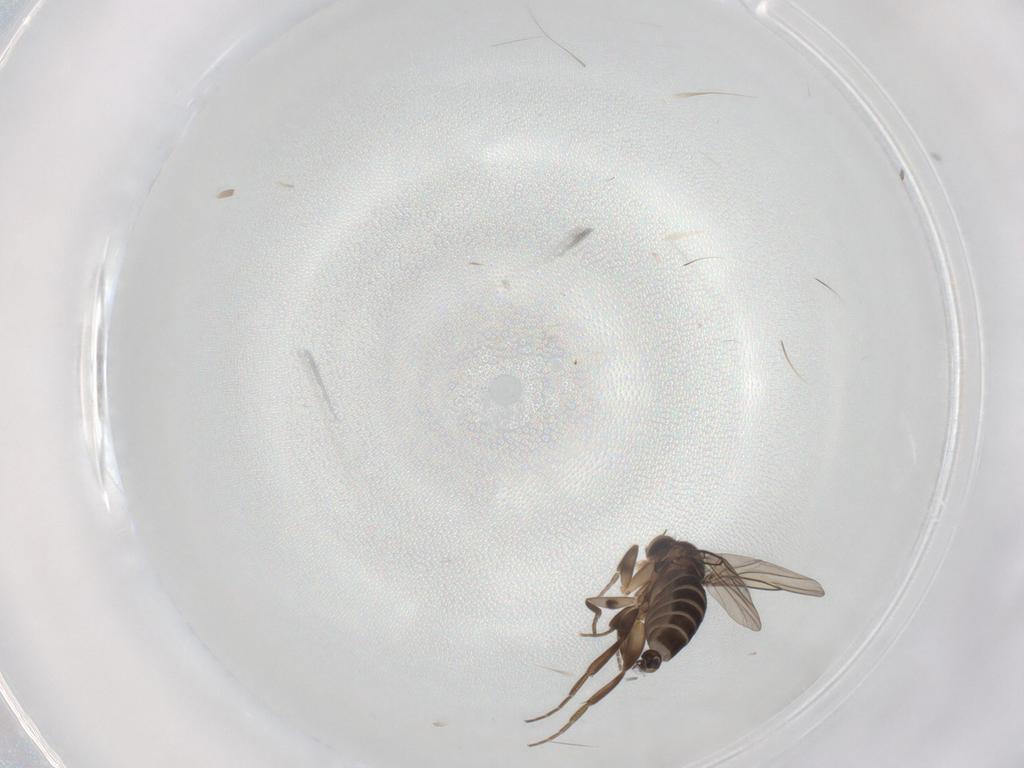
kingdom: Animalia
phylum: Arthropoda
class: Insecta
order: Diptera
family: Phoridae
